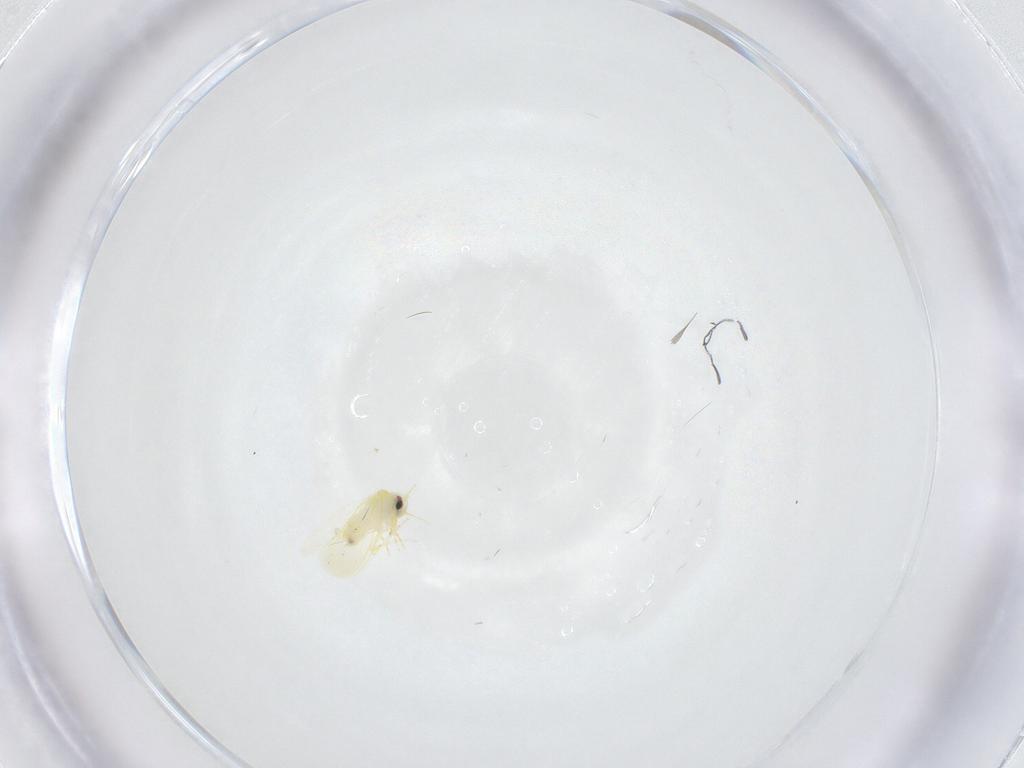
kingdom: Animalia
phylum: Arthropoda
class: Insecta
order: Hemiptera
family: Aleyrodidae
